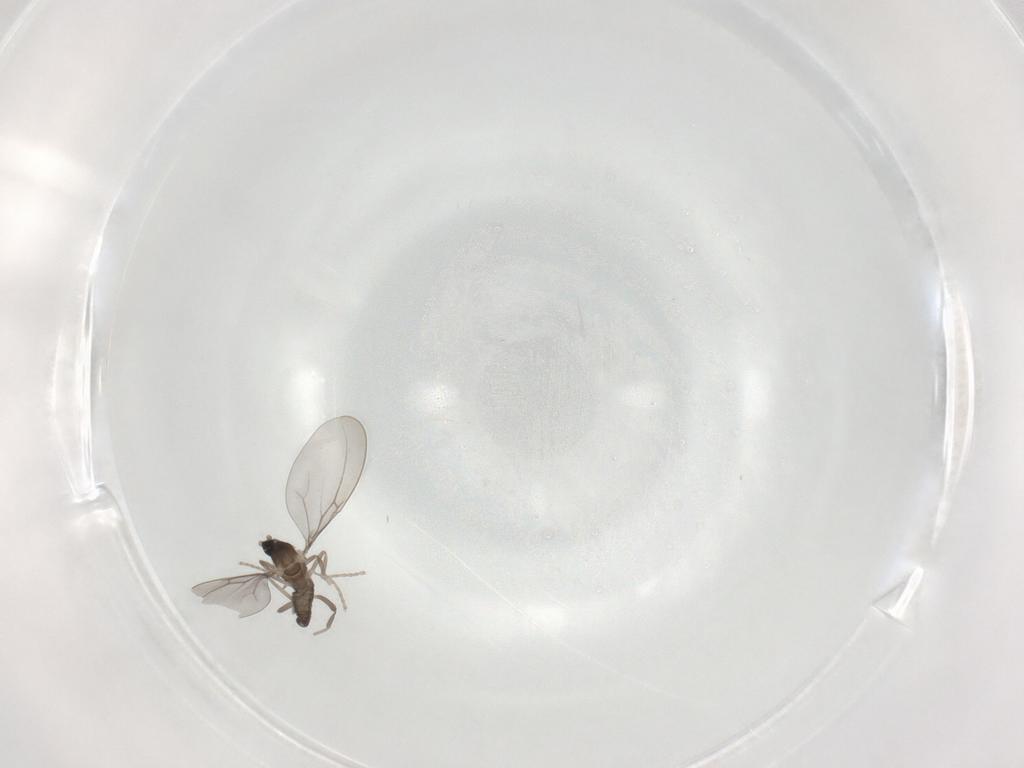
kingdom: Animalia
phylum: Arthropoda
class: Insecta
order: Diptera
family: Cecidomyiidae
